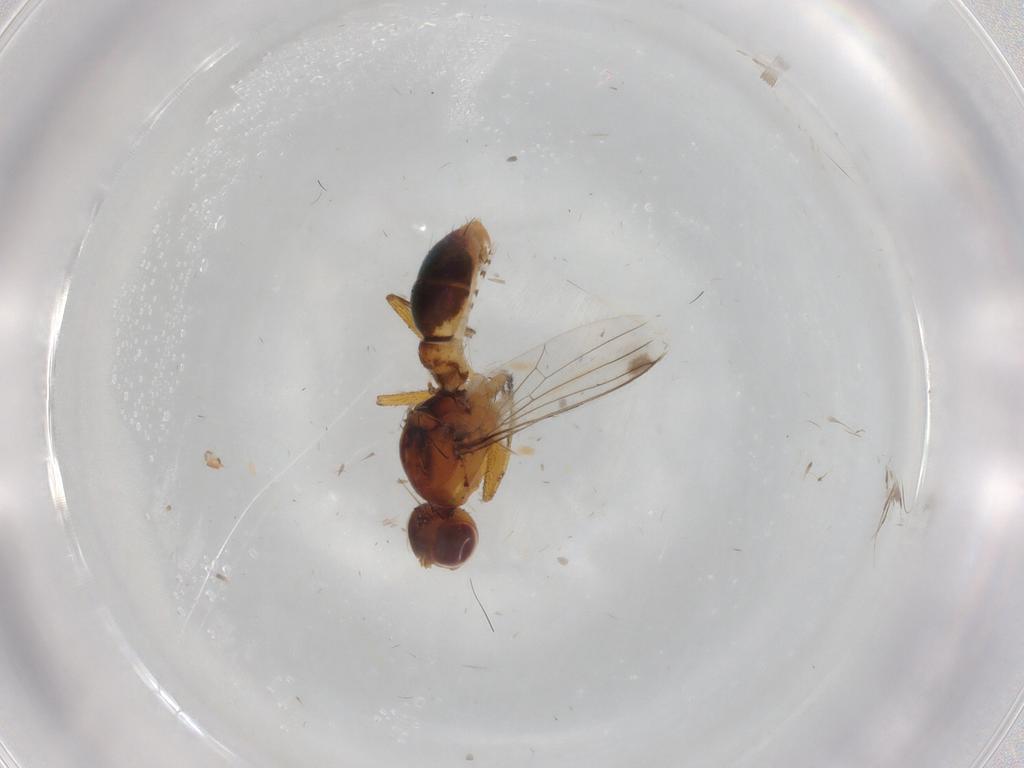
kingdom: Animalia
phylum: Arthropoda
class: Insecta
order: Diptera
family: Sepsidae
